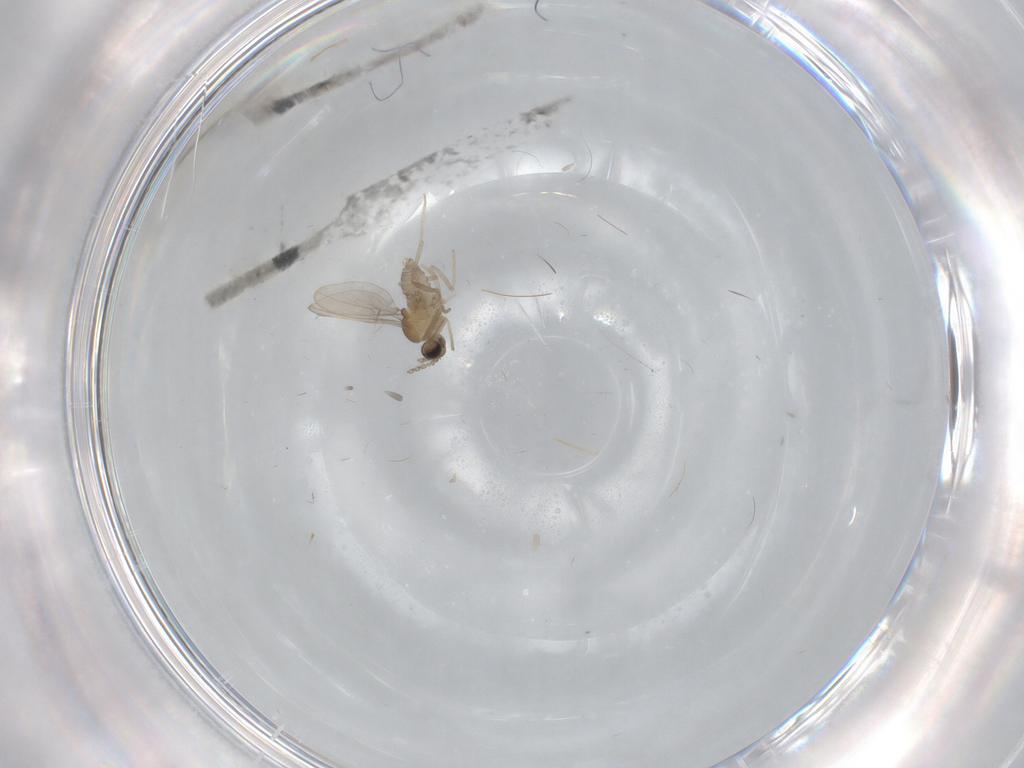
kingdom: Animalia
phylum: Arthropoda
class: Insecta
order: Diptera
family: Cecidomyiidae
